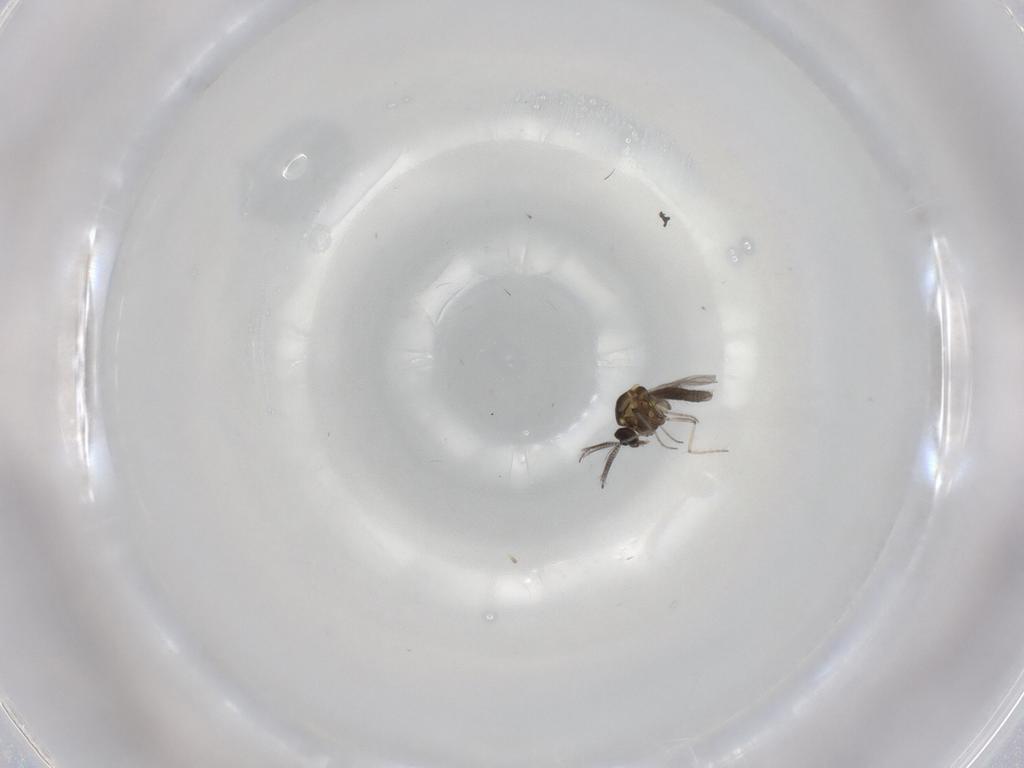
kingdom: Animalia
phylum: Arthropoda
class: Insecta
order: Diptera
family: Ceratopogonidae
